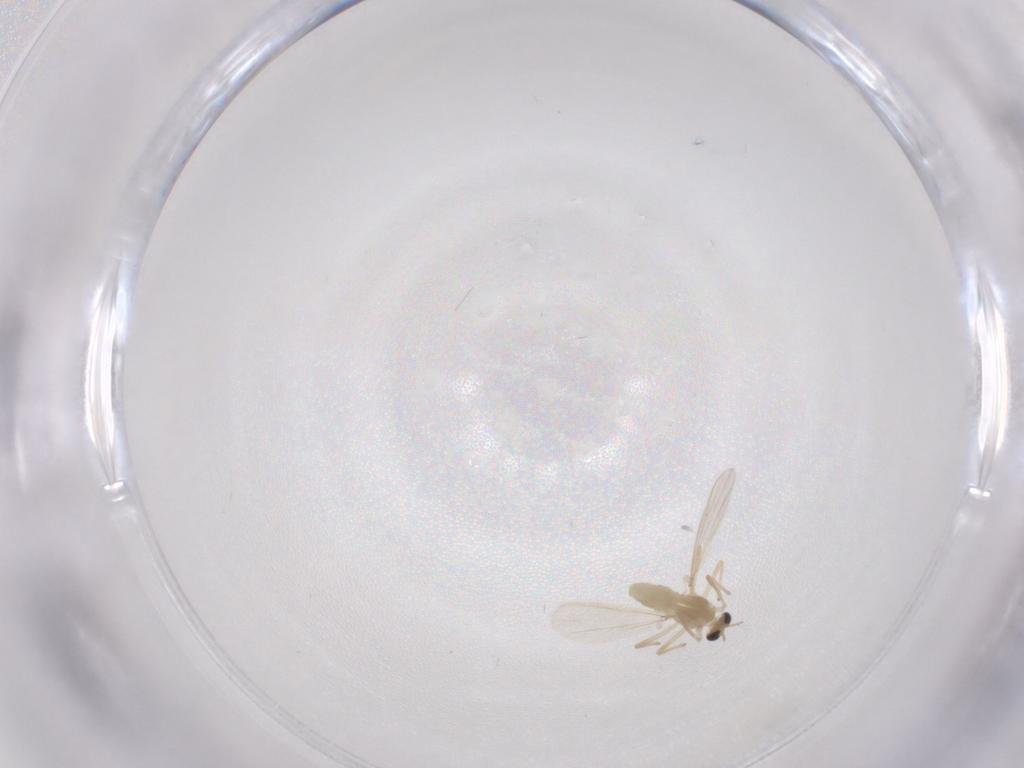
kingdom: Animalia
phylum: Arthropoda
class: Insecta
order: Diptera
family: Chironomidae
